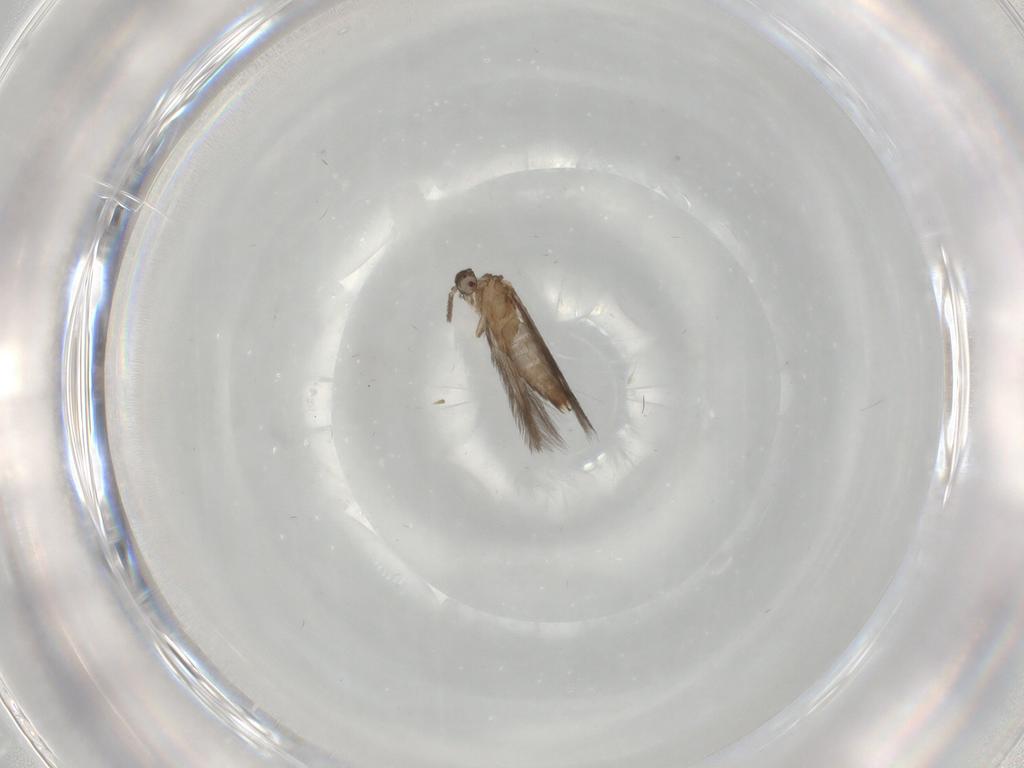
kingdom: Animalia
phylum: Arthropoda
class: Insecta
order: Trichoptera
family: Hydroptilidae
